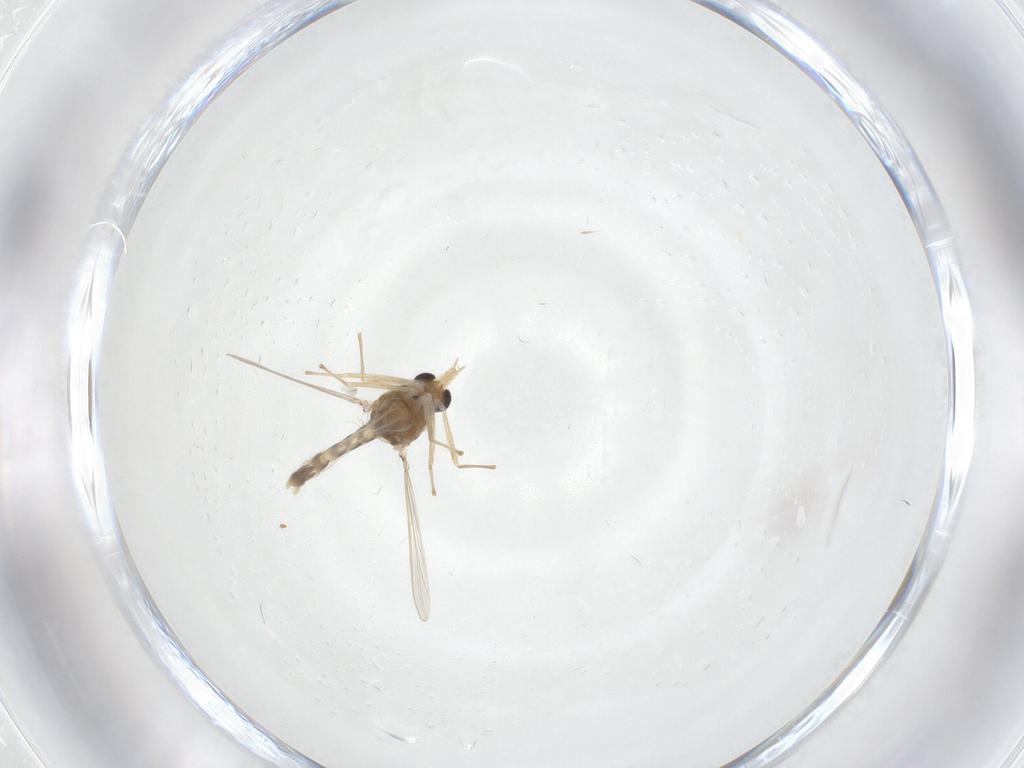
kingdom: Animalia
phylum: Arthropoda
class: Insecta
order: Diptera
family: Chironomidae
